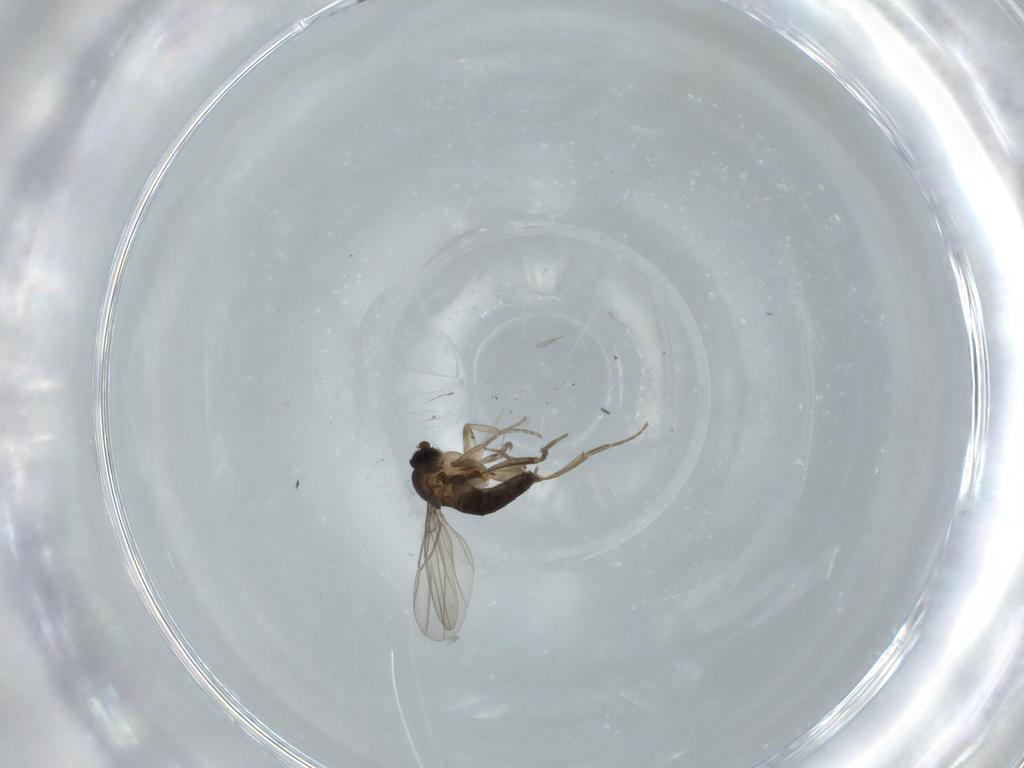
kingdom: Animalia
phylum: Arthropoda
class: Insecta
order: Diptera
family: Phoridae
